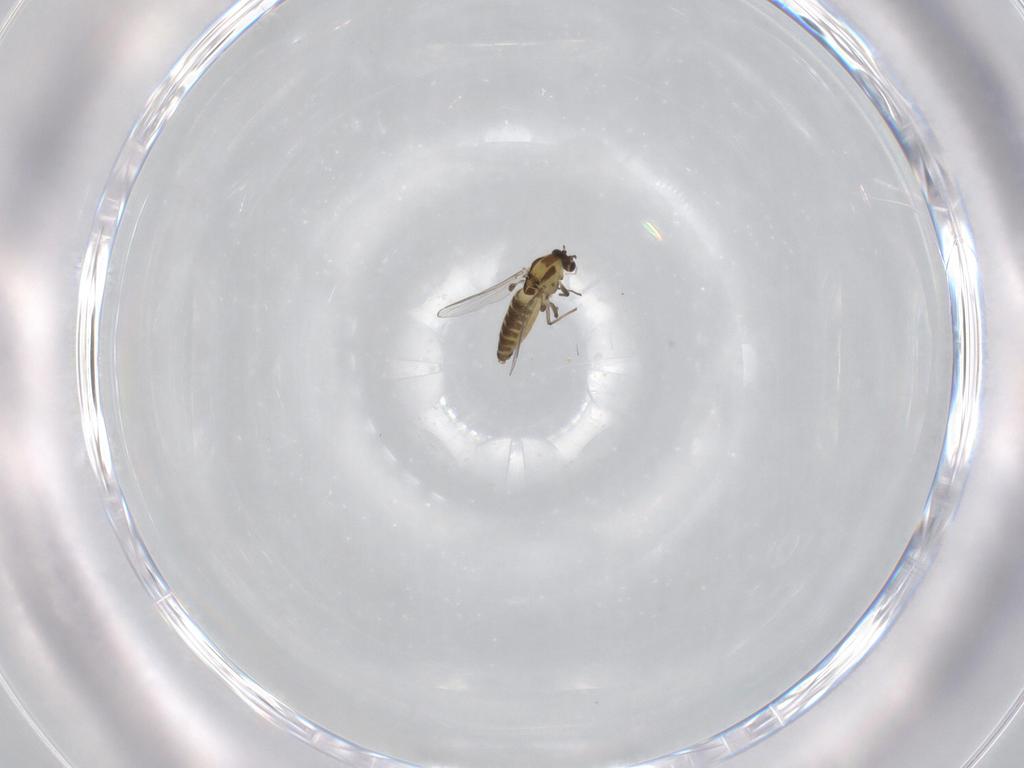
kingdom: Animalia
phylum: Arthropoda
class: Insecta
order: Diptera
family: Chironomidae
